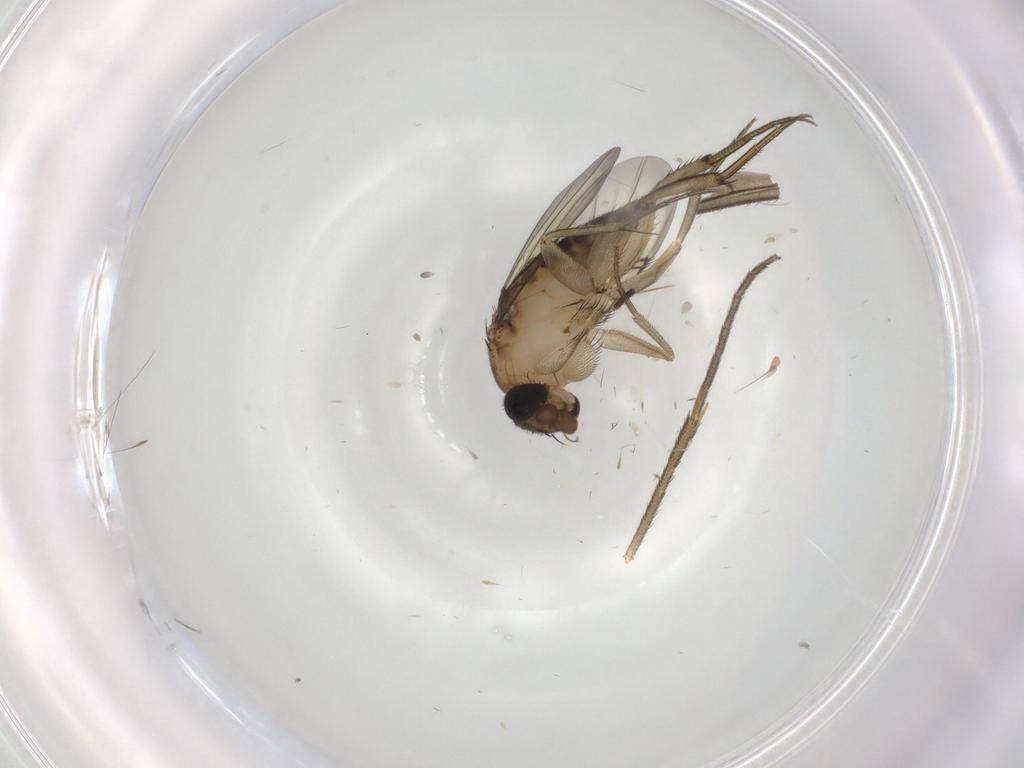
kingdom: Animalia
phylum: Arthropoda
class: Insecta
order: Diptera
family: Phoridae
